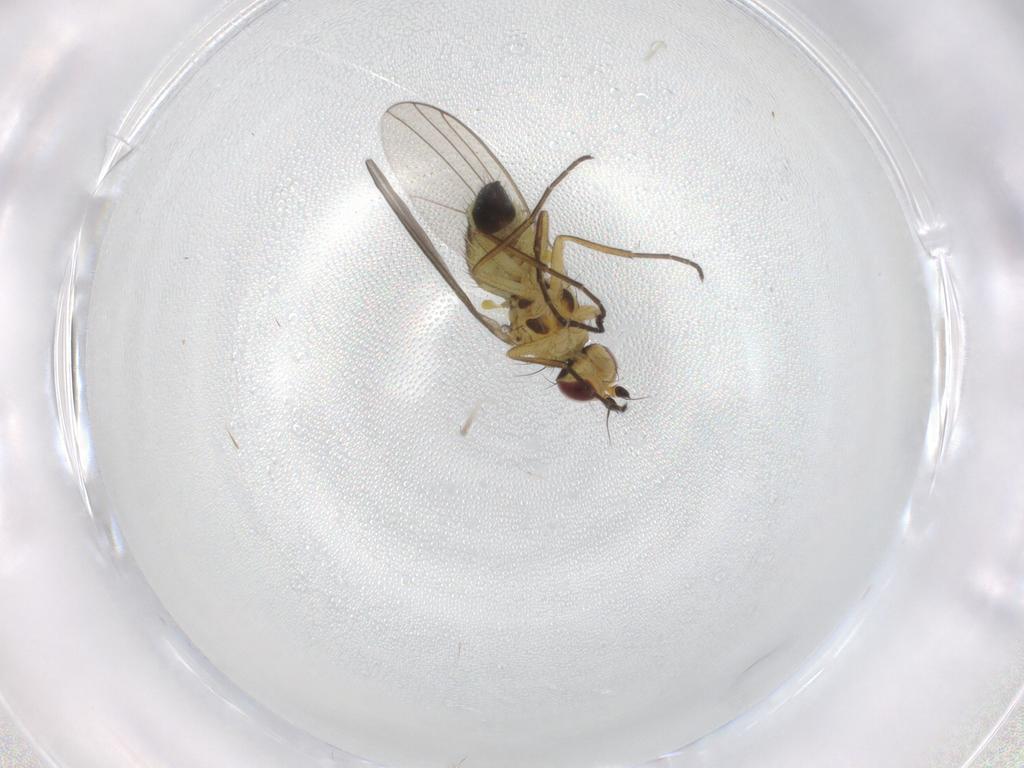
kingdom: Animalia
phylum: Arthropoda
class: Insecta
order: Diptera
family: Agromyzidae
